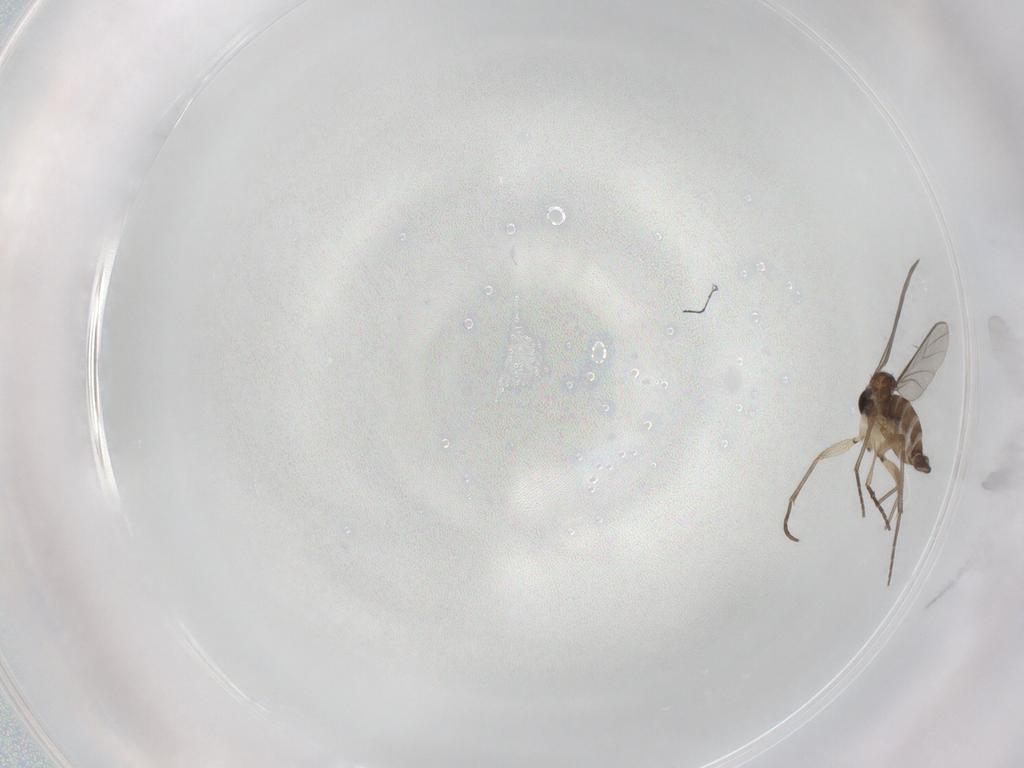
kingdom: Animalia
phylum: Arthropoda
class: Insecta
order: Diptera
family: Sciaridae
